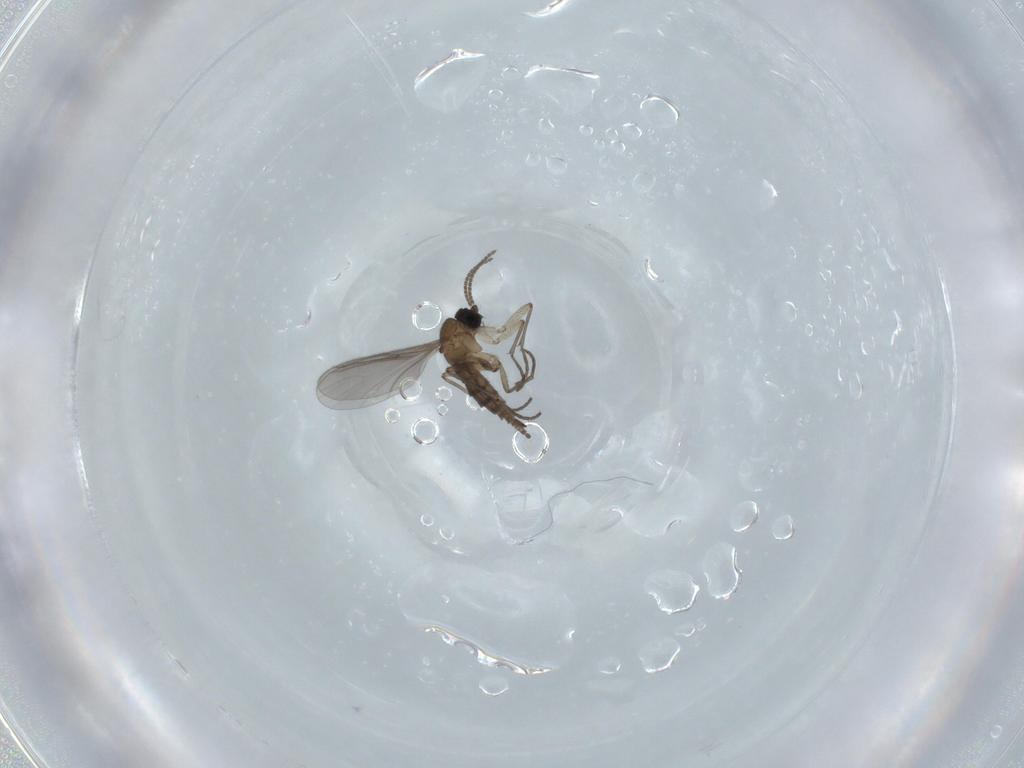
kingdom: Animalia
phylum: Arthropoda
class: Insecta
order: Diptera
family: Sciaridae
